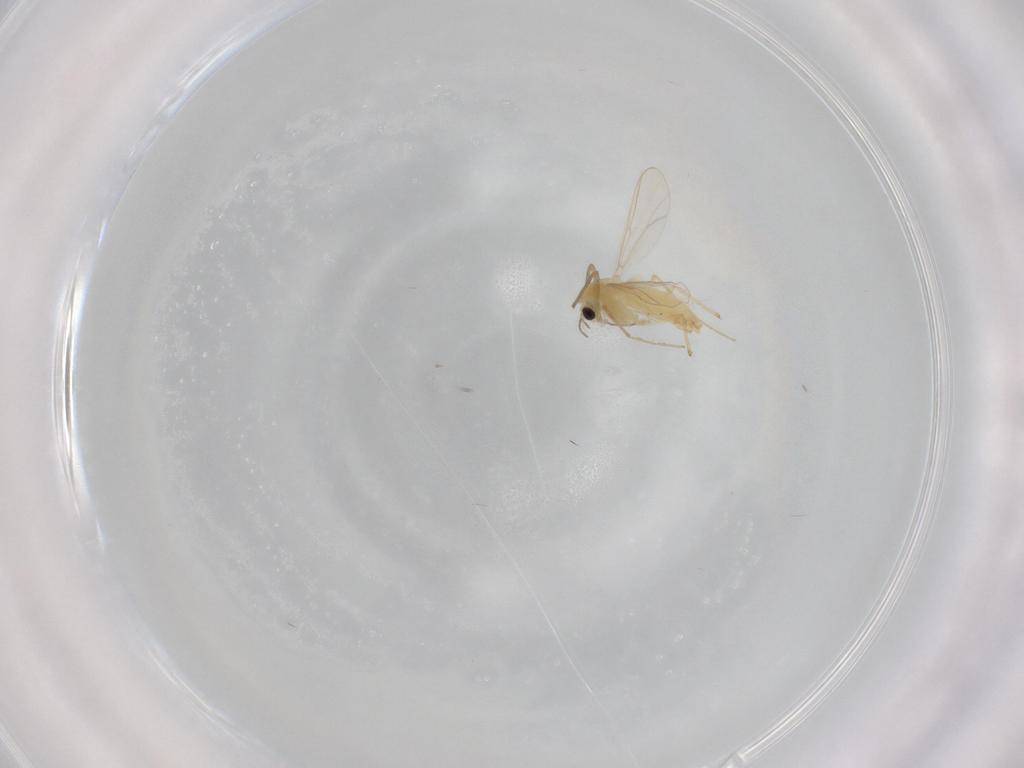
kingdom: Animalia
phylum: Arthropoda
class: Insecta
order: Diptera
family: Chironomidae
